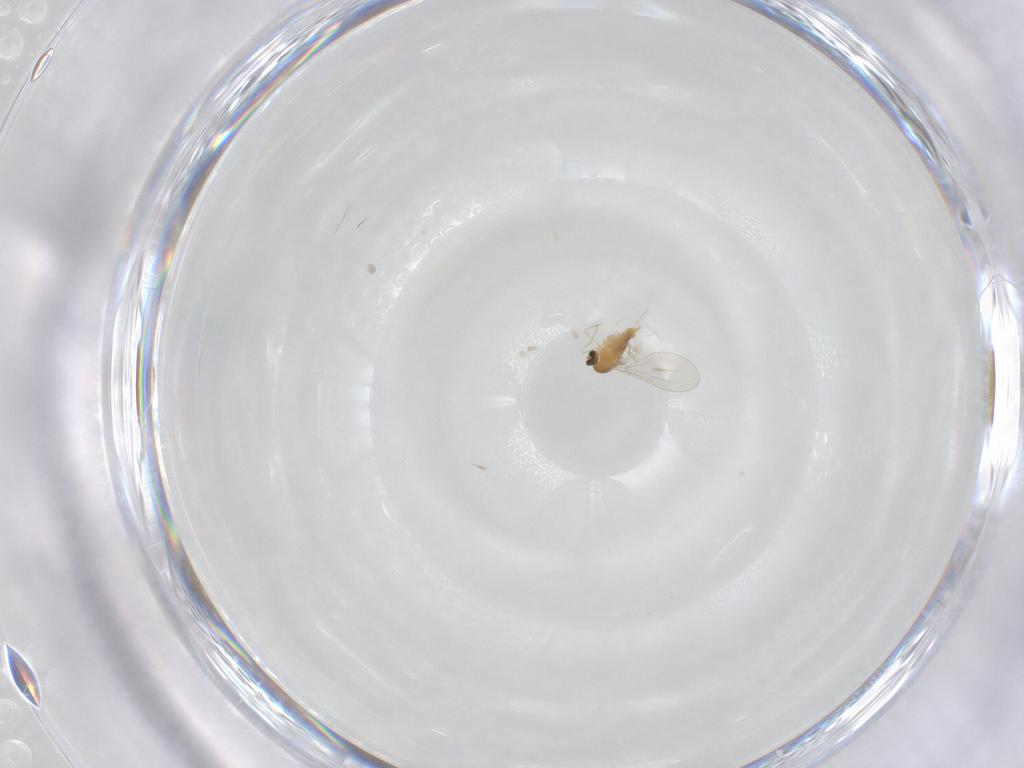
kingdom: Animalia
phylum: Arthropoda
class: Insecta
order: Diptera
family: Cecidomyiidae
